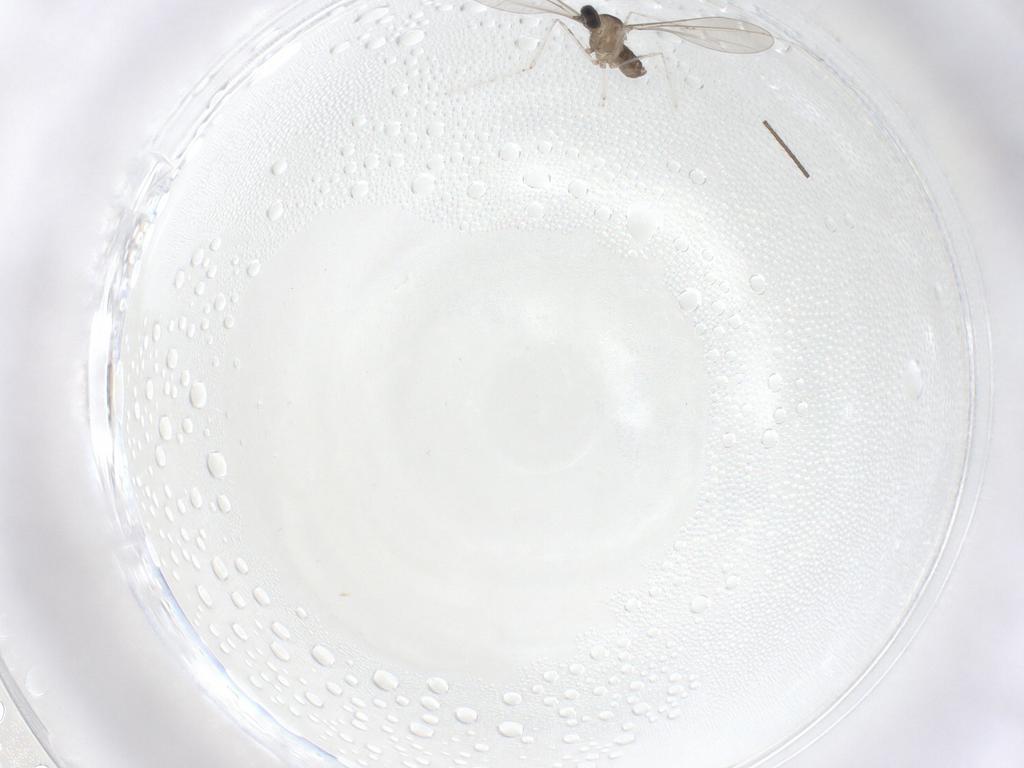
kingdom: Animalia
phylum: Arthropoda
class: Insecta
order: Diptera
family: Cecidomyiidae
